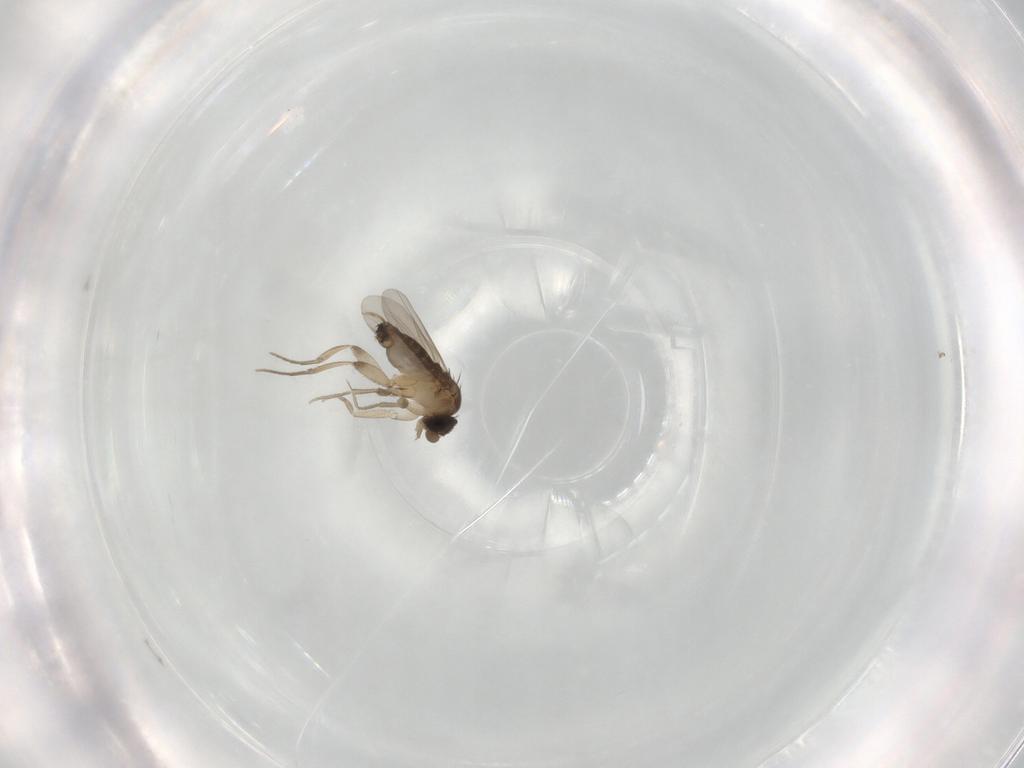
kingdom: Animalia
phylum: Arthropoda
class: Insecta
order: Diptera
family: Phoridae
